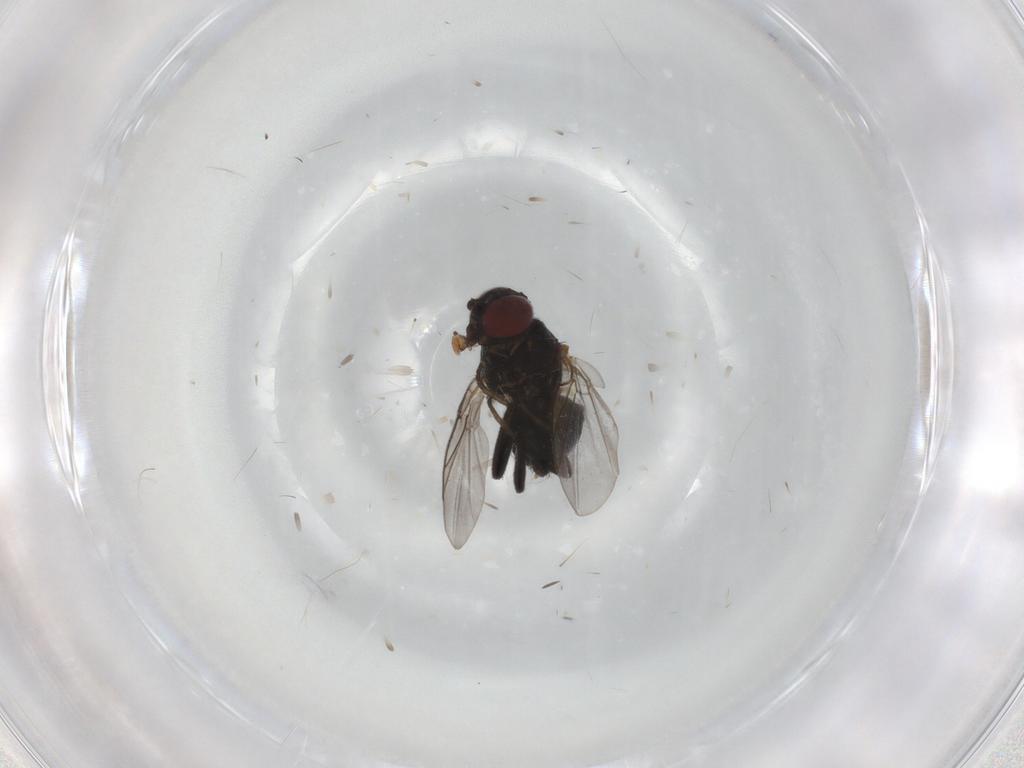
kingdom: Animalia
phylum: Arthropoda
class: Insecta
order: Diptera
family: Agromyzidae
